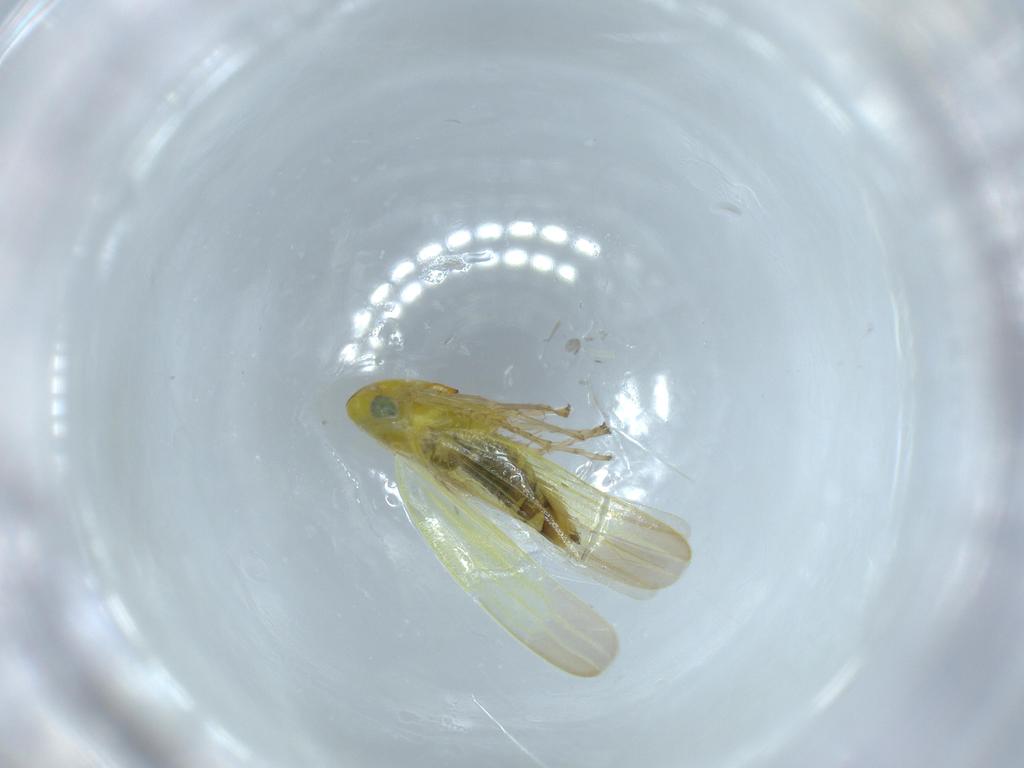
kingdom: Animalia
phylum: Arthropoda
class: Insecta
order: Hemiptera
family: Cicadellidae
